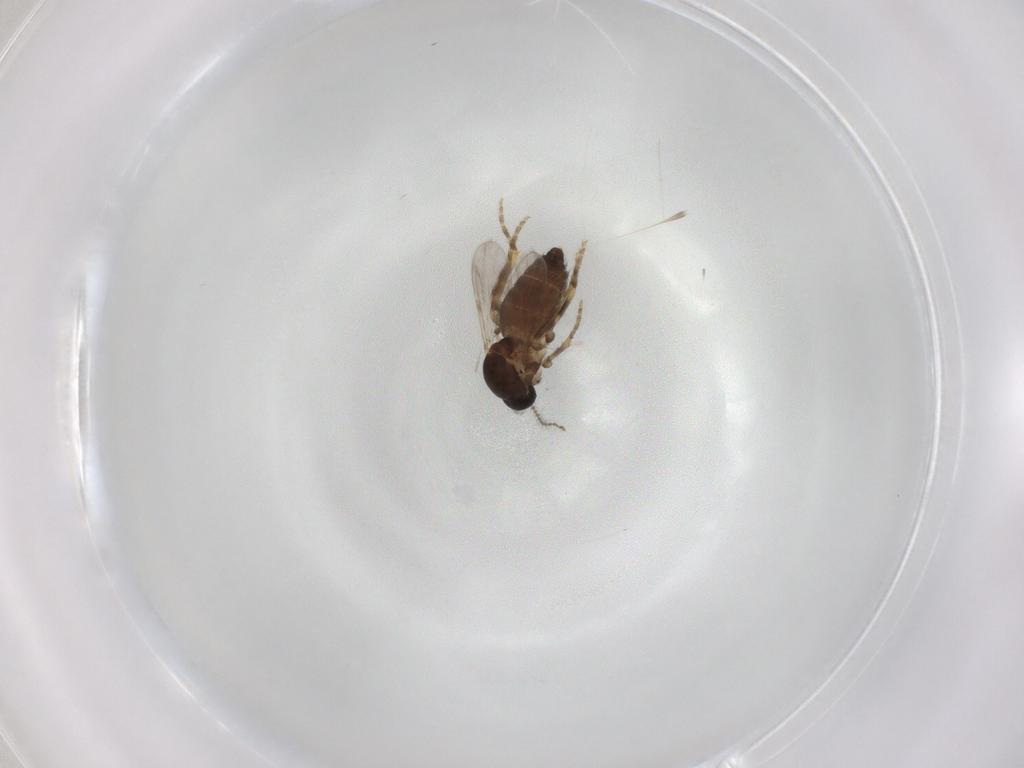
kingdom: Animalia
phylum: Arthropoda
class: Insecta
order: Diptera
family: Ceratopogonidae
